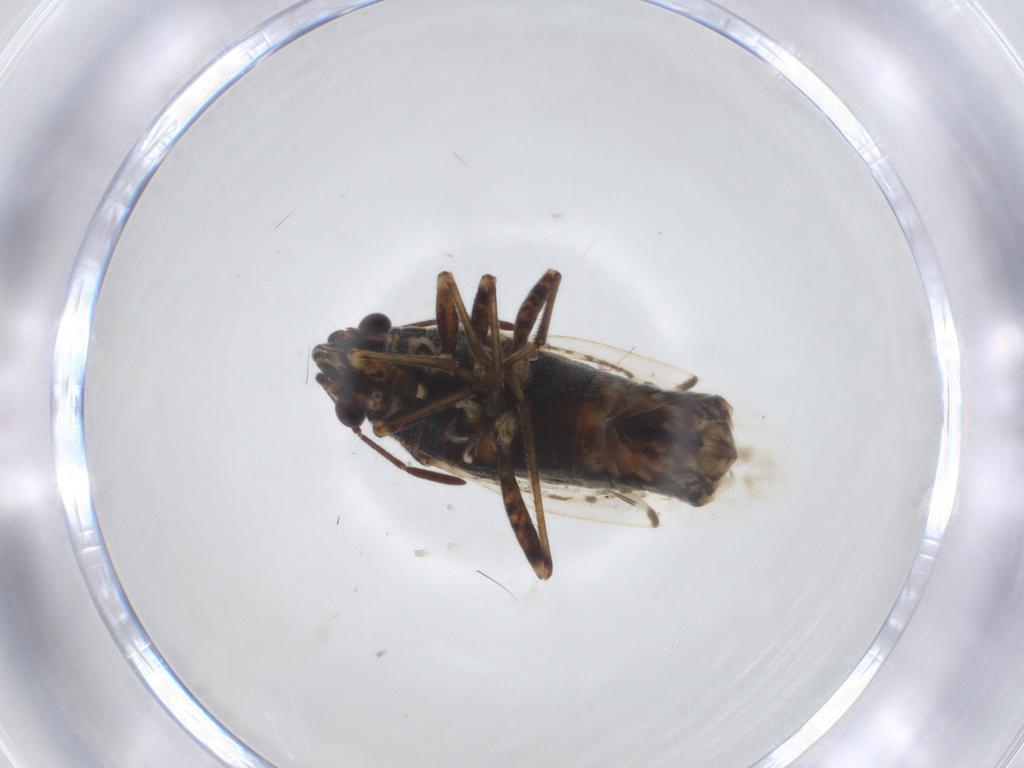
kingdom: Animalia
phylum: Arthropoda
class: Insecta
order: Hemiptera
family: Lygaeidae
